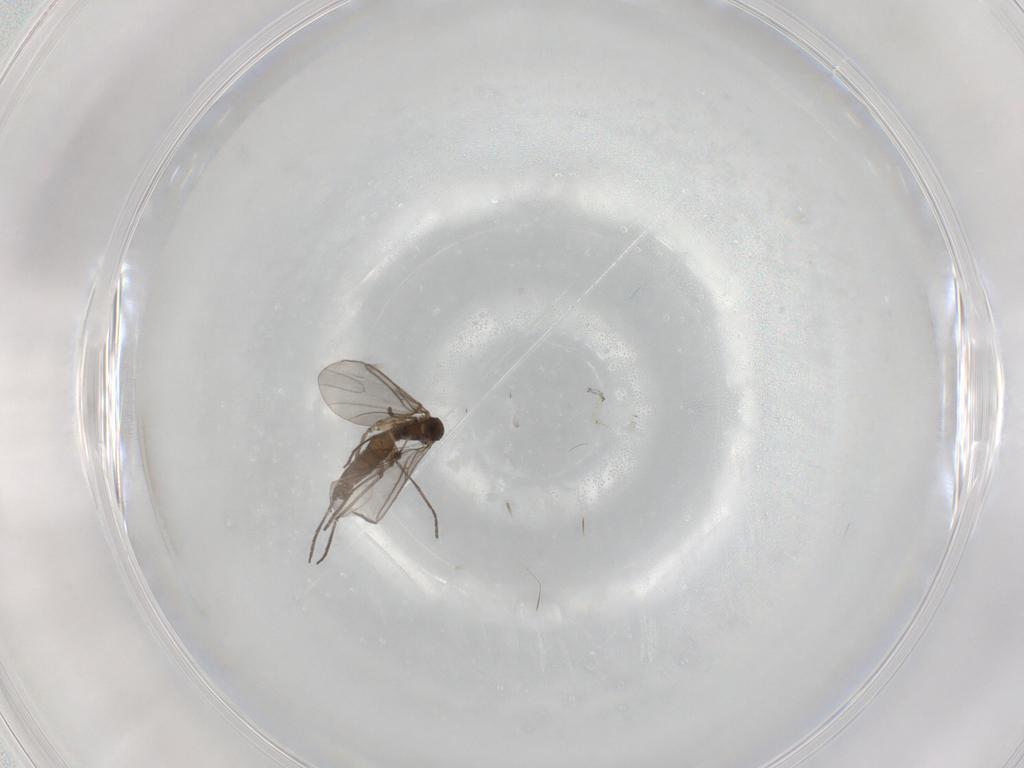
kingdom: Animalia
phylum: Arthropoda
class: Insecta
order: Diptera
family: Sciaridae
